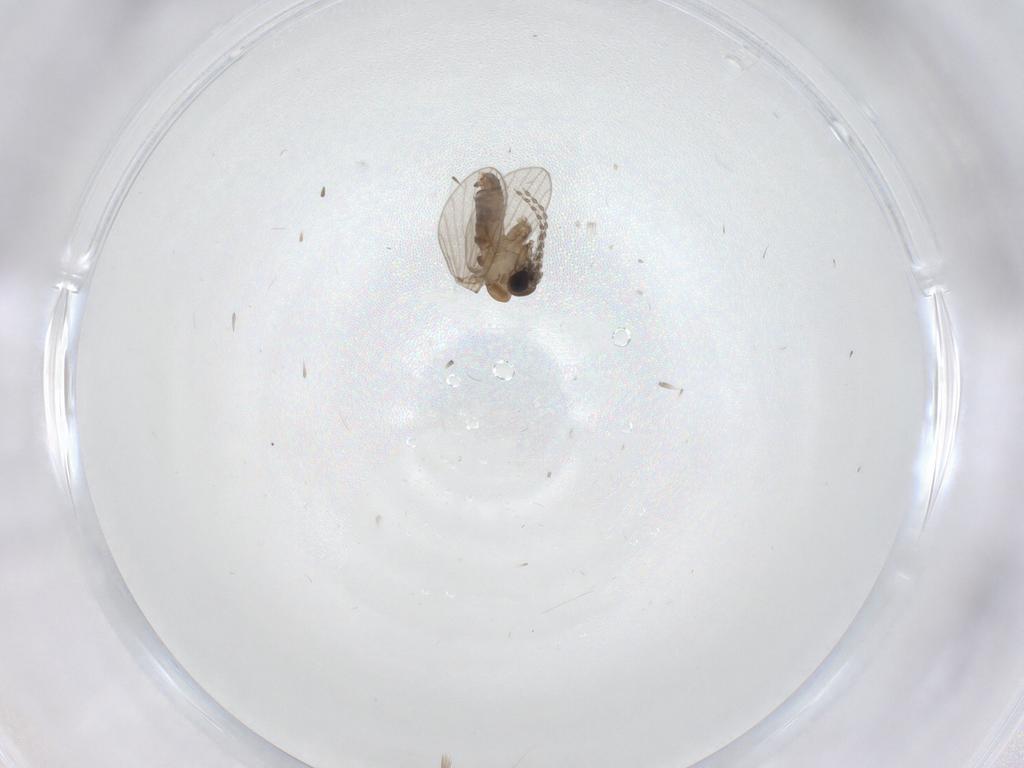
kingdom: Animalia
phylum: Arthropoda
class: Insecta
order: Diptera
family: Psychodidae
